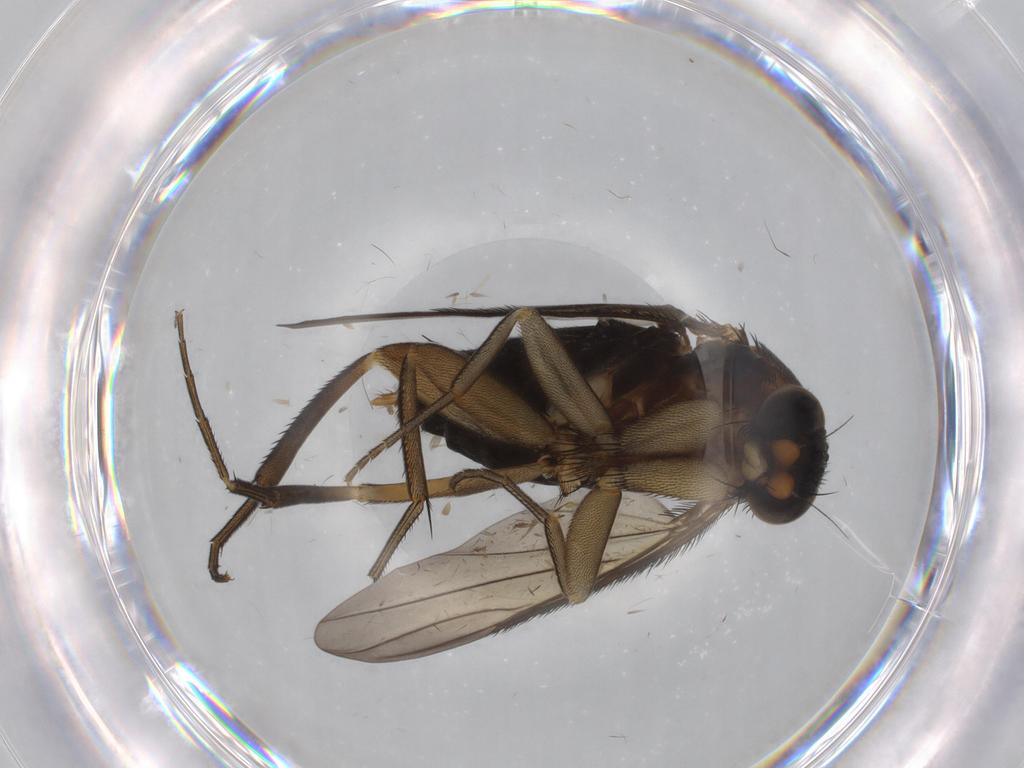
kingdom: Animalia
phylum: Arthropoda
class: Insecta
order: Diptera
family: Phoridae
